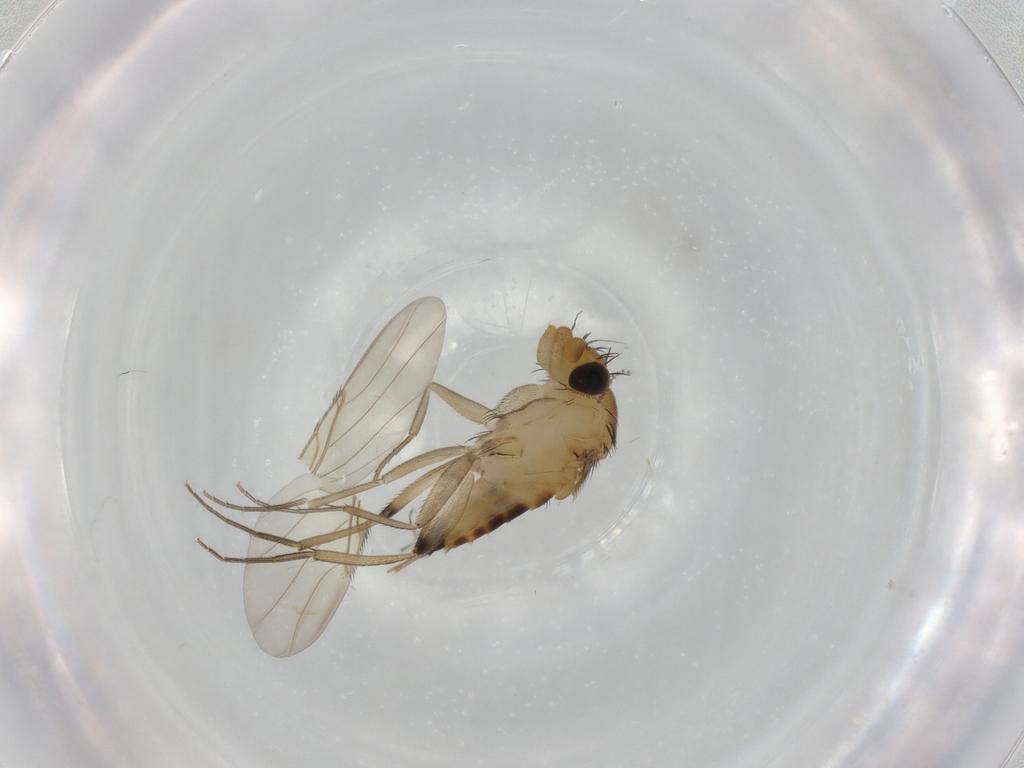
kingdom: Animalia
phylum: Arthropoda
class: Insecta
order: Diptera
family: Phoridae
